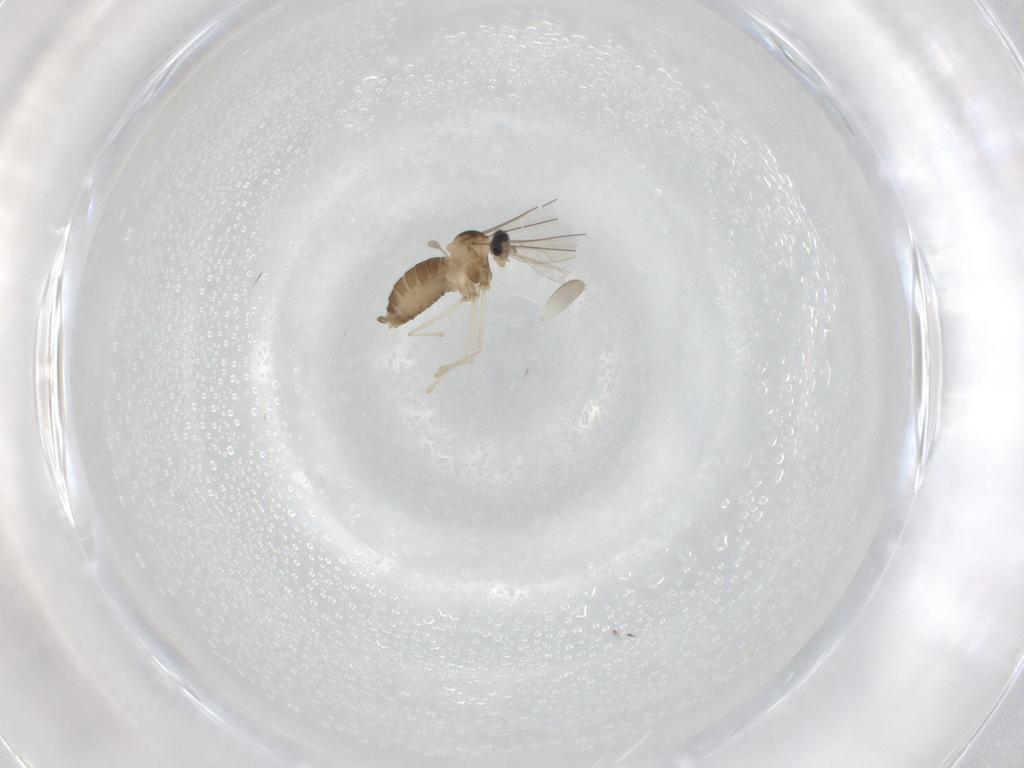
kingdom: Animalia
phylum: Arthropoda
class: Insecta
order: Diptera
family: Cecidomyiidae
